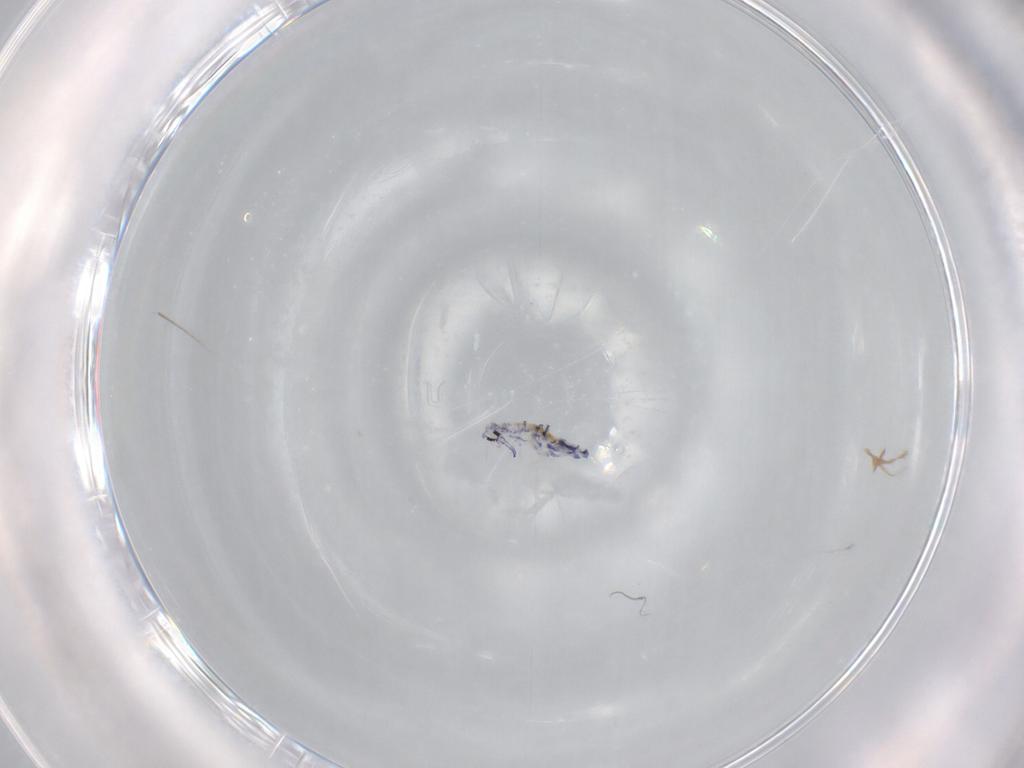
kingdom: Animalia
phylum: Arthropoda
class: Collembola
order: Entomobryomorpha
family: Entomobryidae
